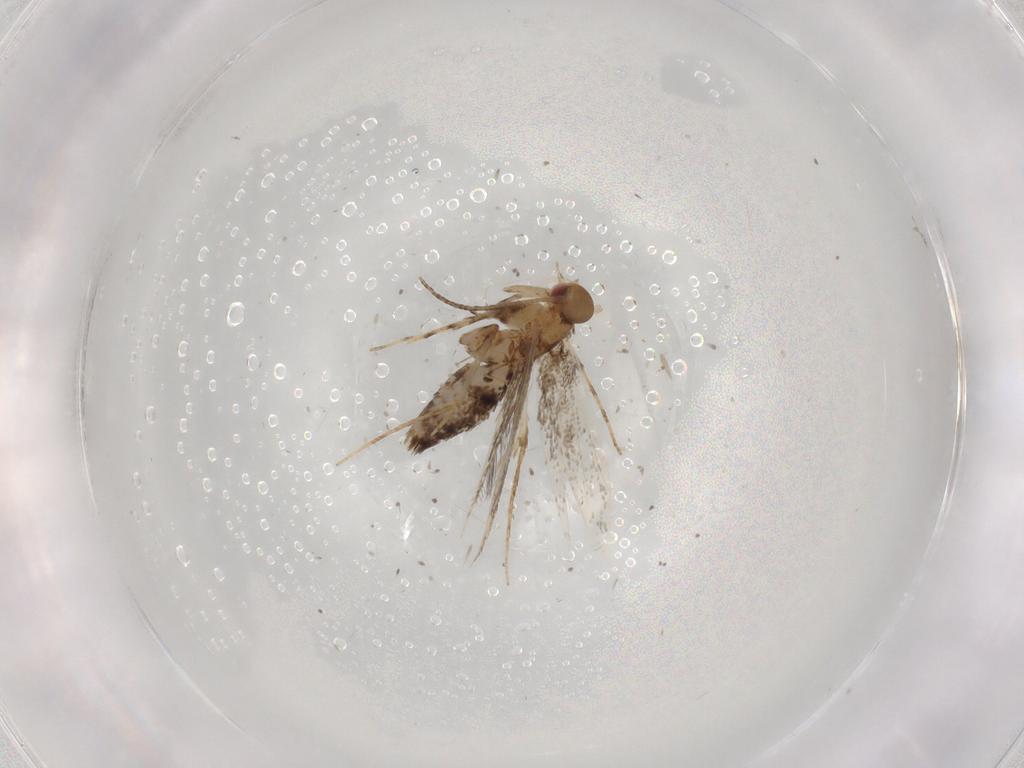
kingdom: Animalia
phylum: Arthropoda
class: Insecta
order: Lepidoptera
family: Gracillariidae
